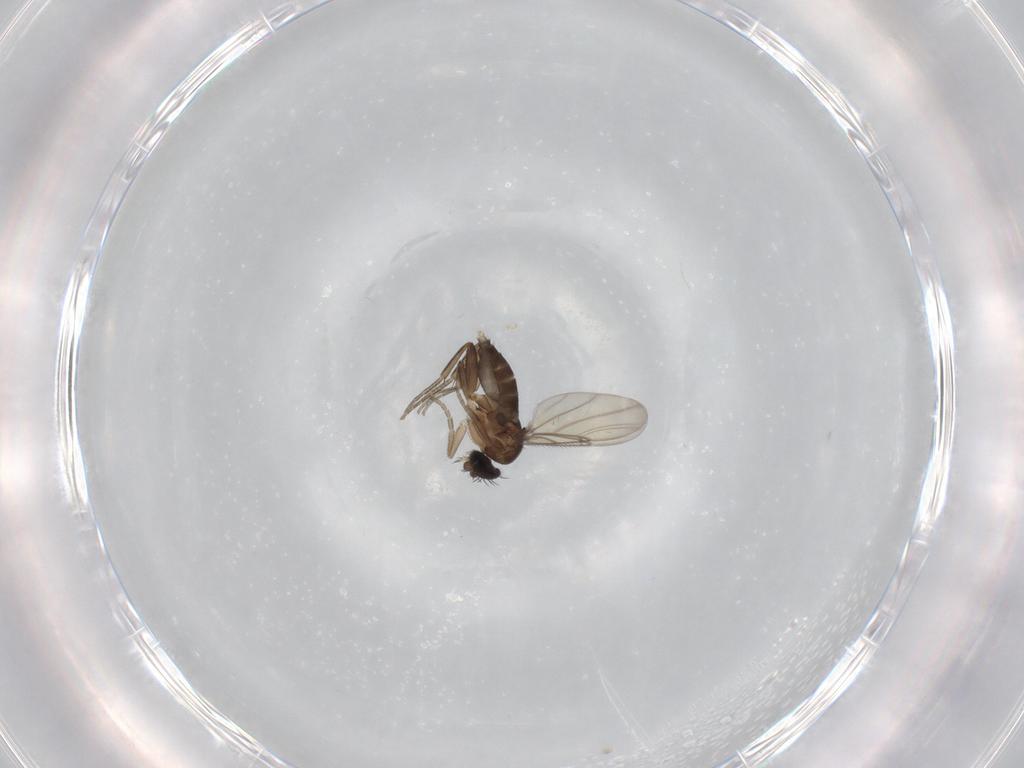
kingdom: Animalia
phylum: Arthropoda
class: Insecta
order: Diptera
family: Phoridae
